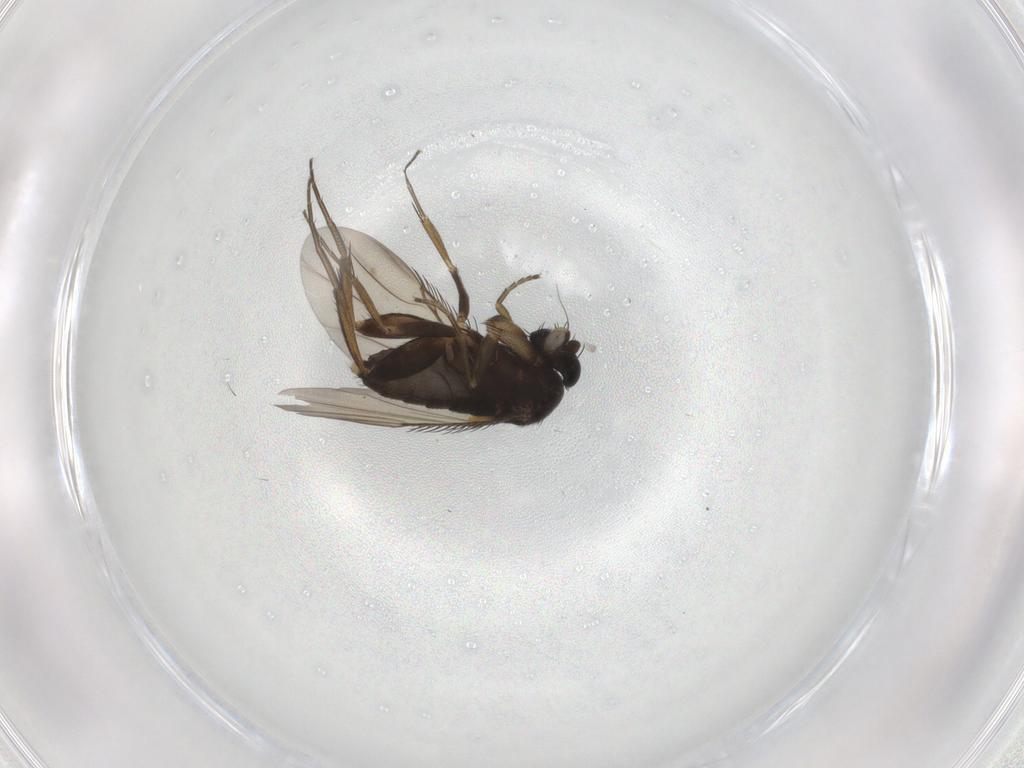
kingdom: Animalia
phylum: Arthropoda
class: Insecta
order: Diptera
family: Phoridae
